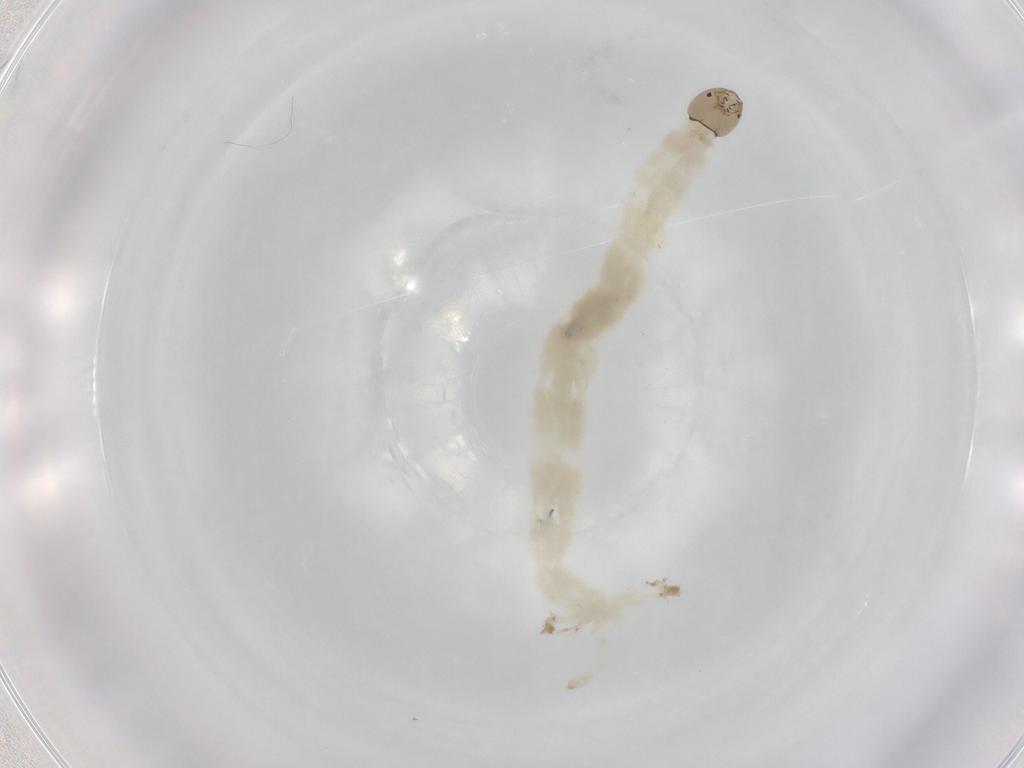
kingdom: Animalia
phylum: Arthropoda
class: Insecta
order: Diptera
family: Chironomidae
